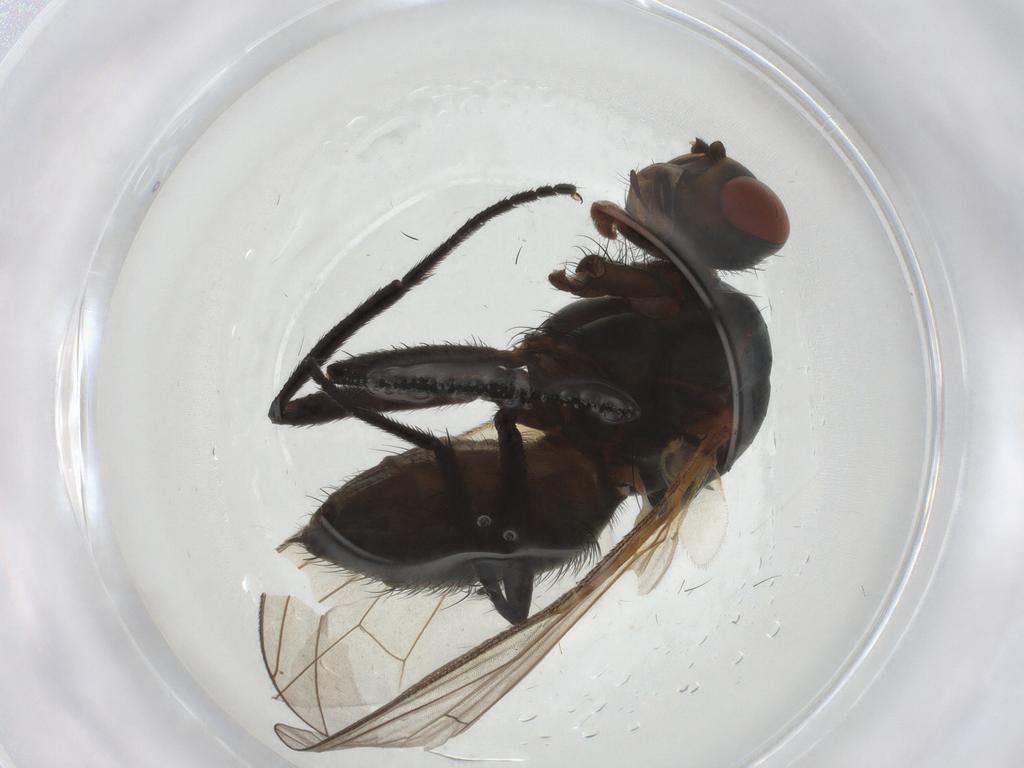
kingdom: Animalia
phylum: Arthropoda
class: Insecta
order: Diptera
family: Anthomyiidae
